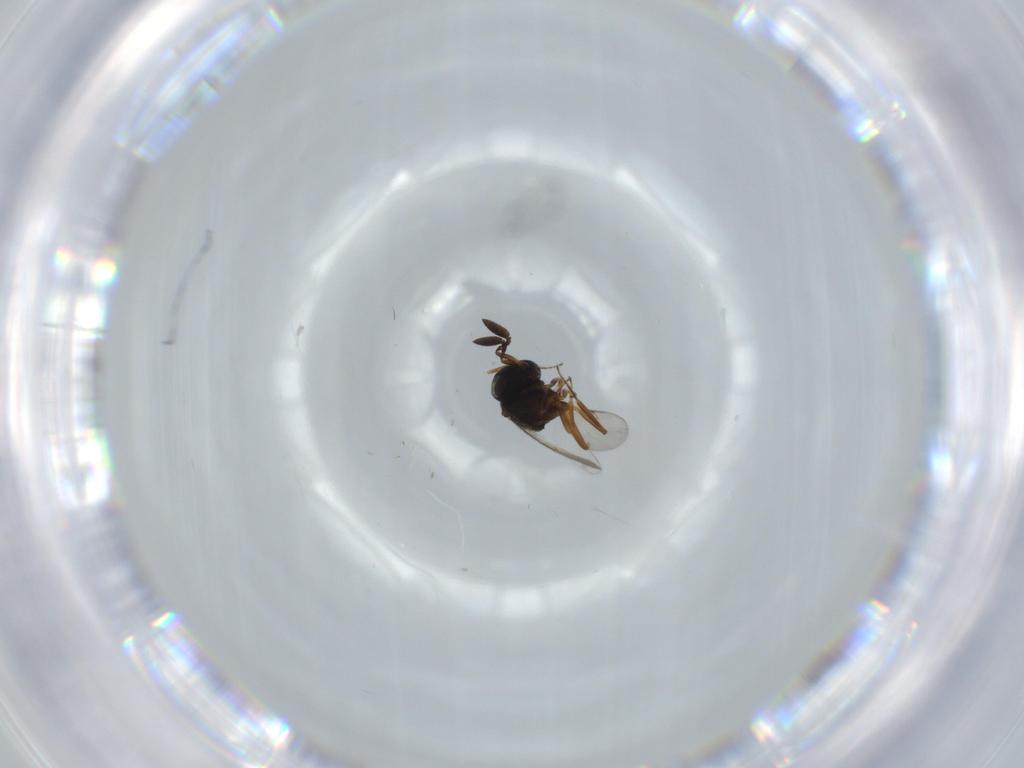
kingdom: Animalia
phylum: Arthropoda
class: Insecta
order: Coleoptera
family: Curculionidae
